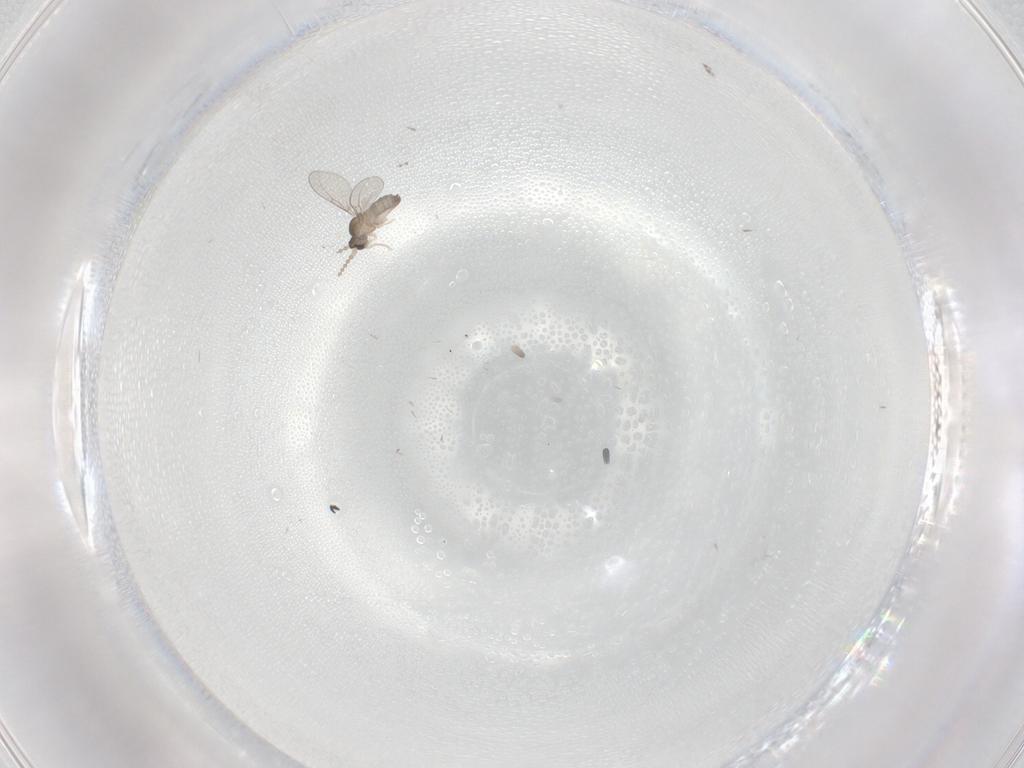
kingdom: Animalia
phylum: Arthropoda
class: Insecta
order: Diptera
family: Cecidomyiidae
